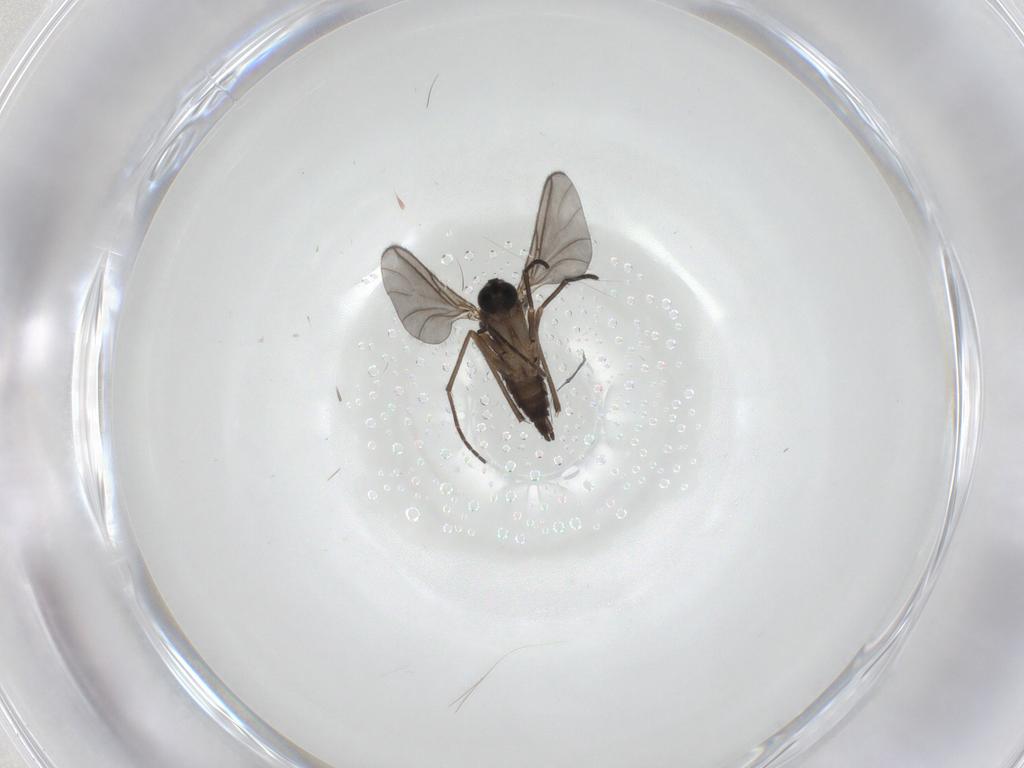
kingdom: Animalia
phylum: Arthropoda
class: Insecta
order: Diptera
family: Sciaridae
